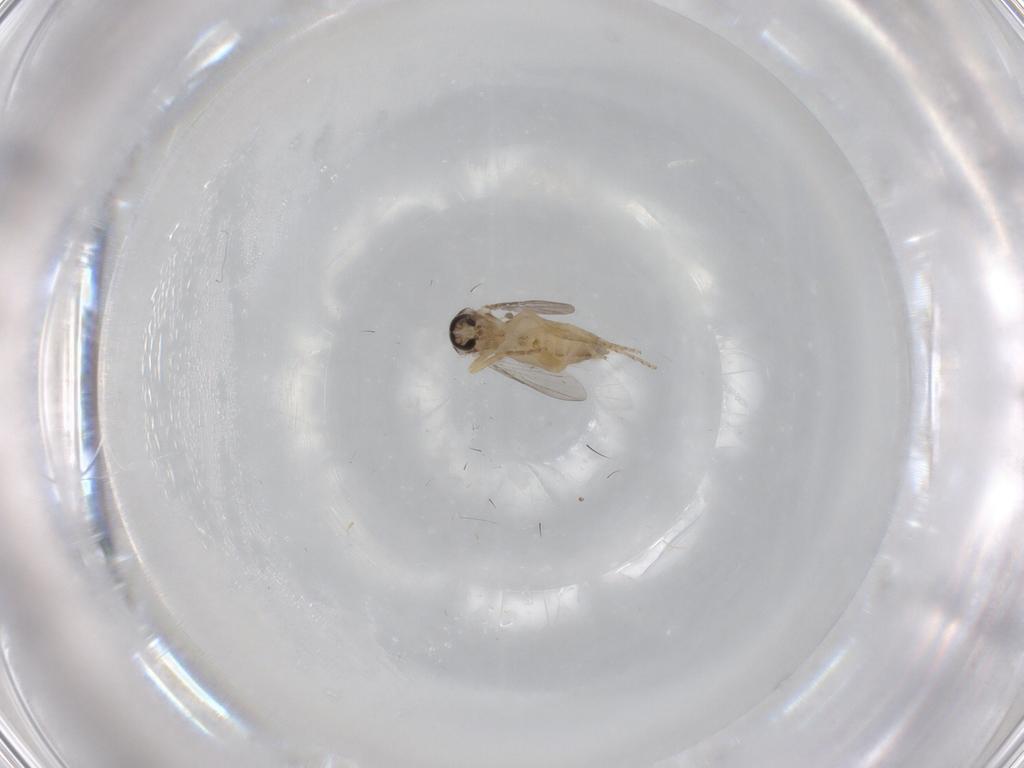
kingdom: Animalia
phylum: Arthropoda
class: Insecta
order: Diptera
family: Ceratopogonidae
